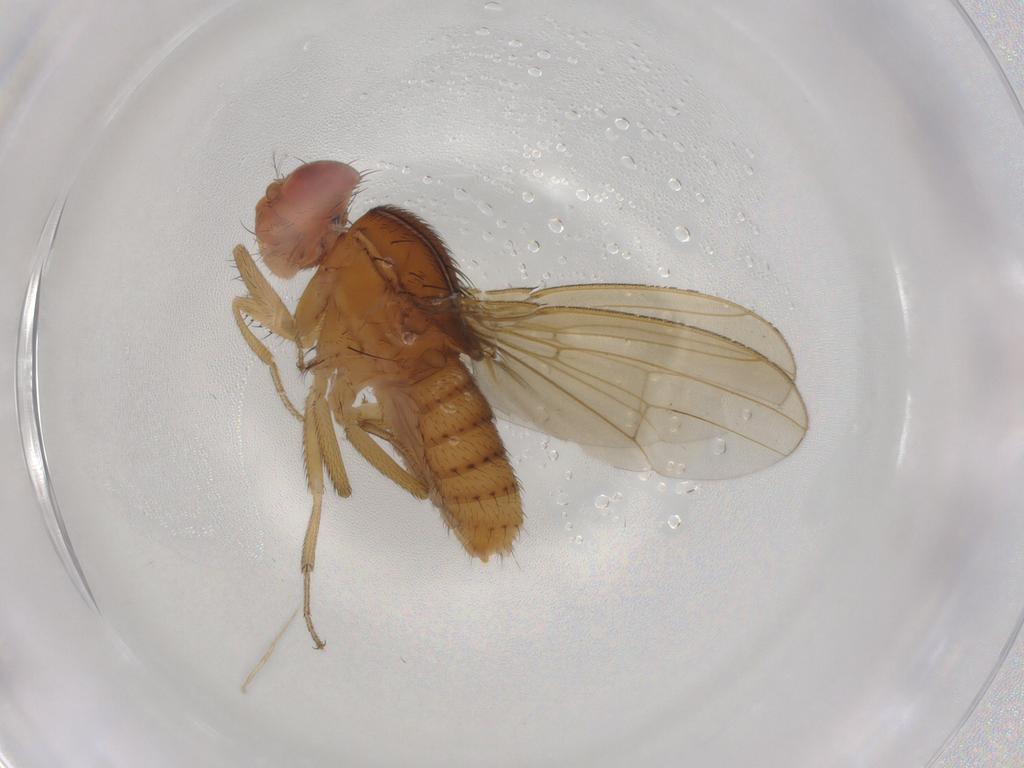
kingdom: Animalia
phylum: Arthropoda
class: Insecta
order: Diptera
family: Drosophilidae
